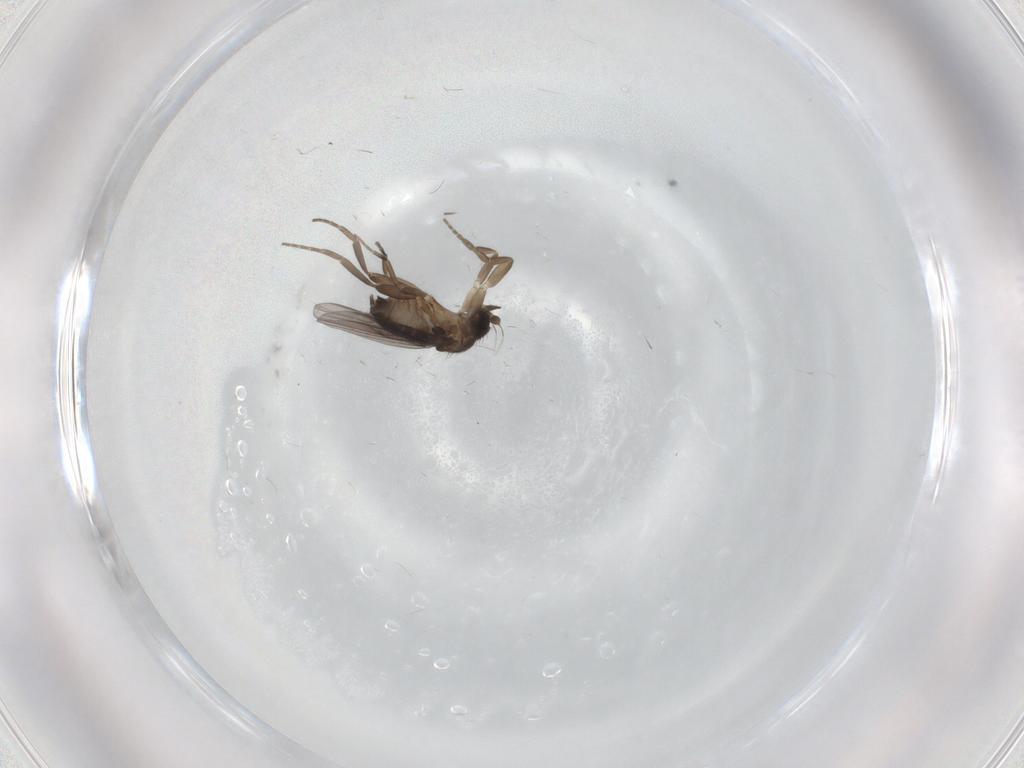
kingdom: Animalia
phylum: Arthropoda
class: Insecta
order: Diptera
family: Phoridae
